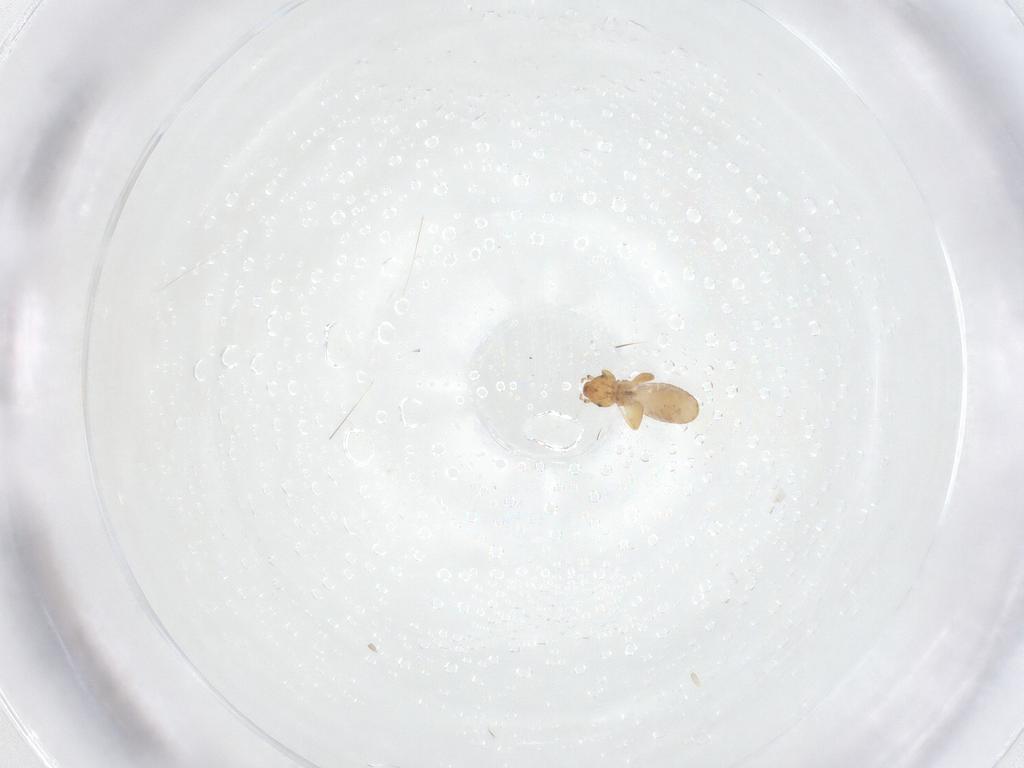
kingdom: Animalia
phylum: Arthropoda
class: Insecta
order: Psocodea
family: Liposcelididae
